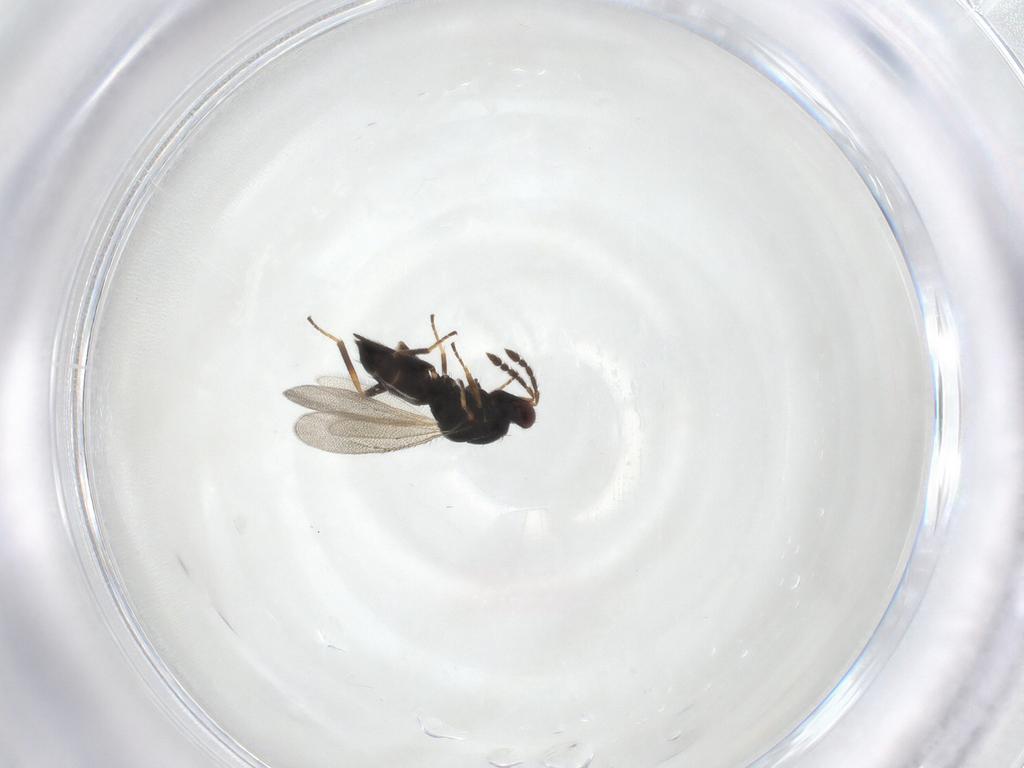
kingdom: Animalia
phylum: Arthropoda
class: Insecta
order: Hymenoptera
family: Eulophidae
